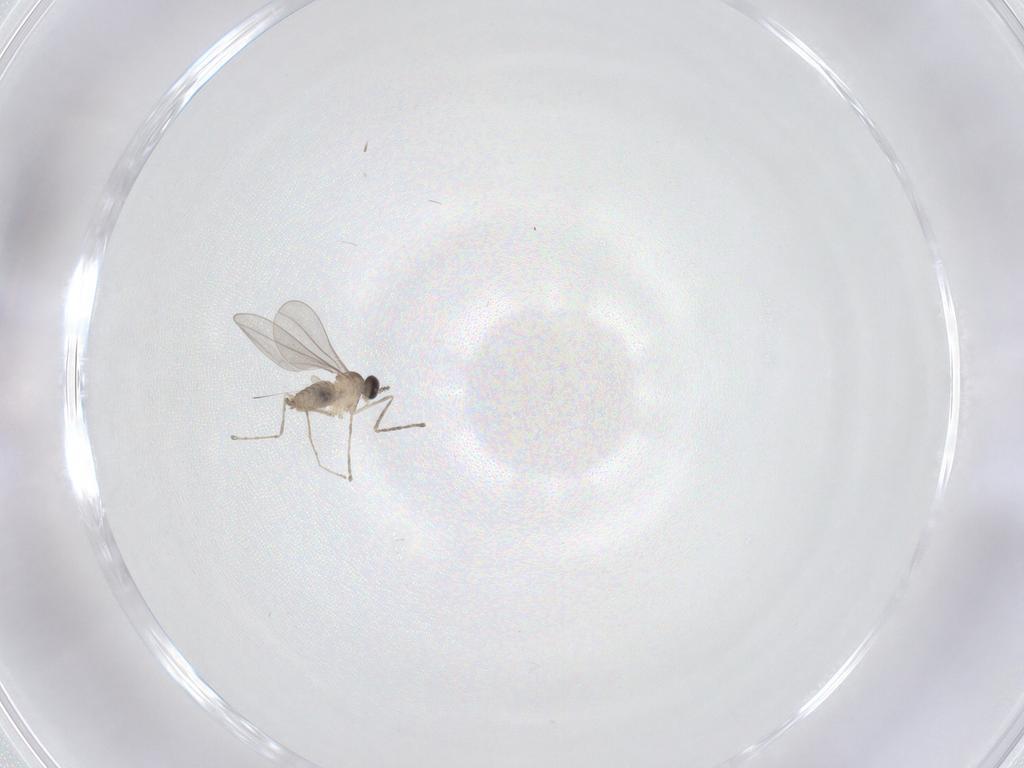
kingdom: Animalia
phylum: Arthropoda
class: Insecta
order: Diptera
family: Cecidomyiidae
